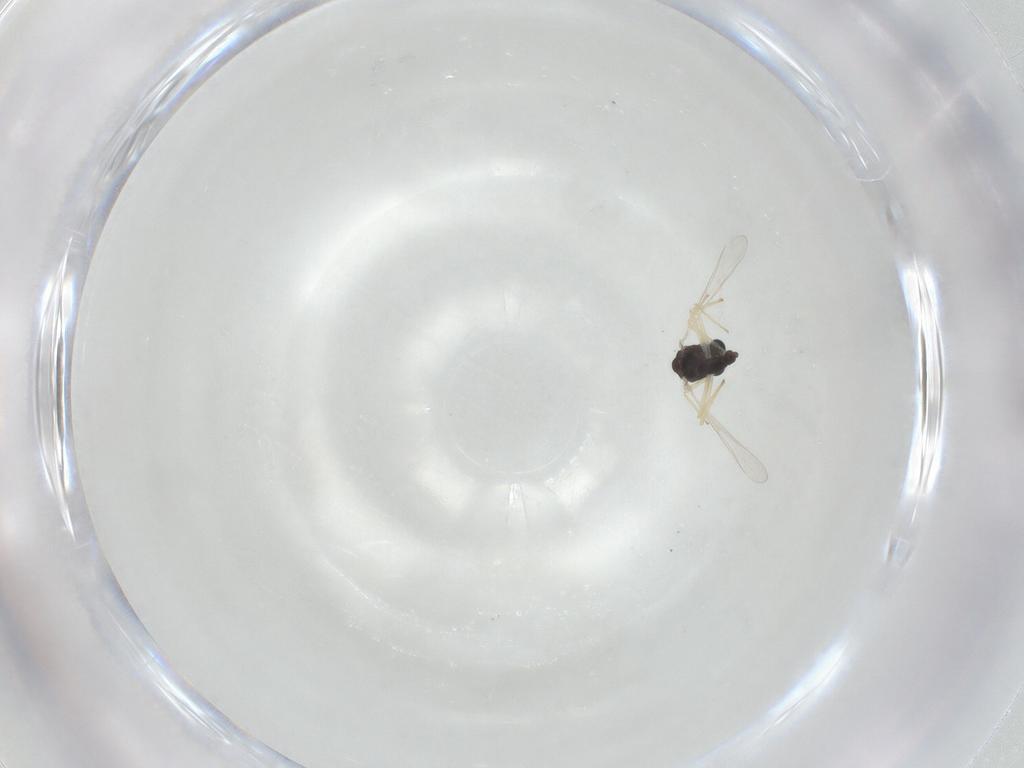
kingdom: Animalia
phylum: Arthropoda
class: Insecta
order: Diptera
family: Chironomidae
